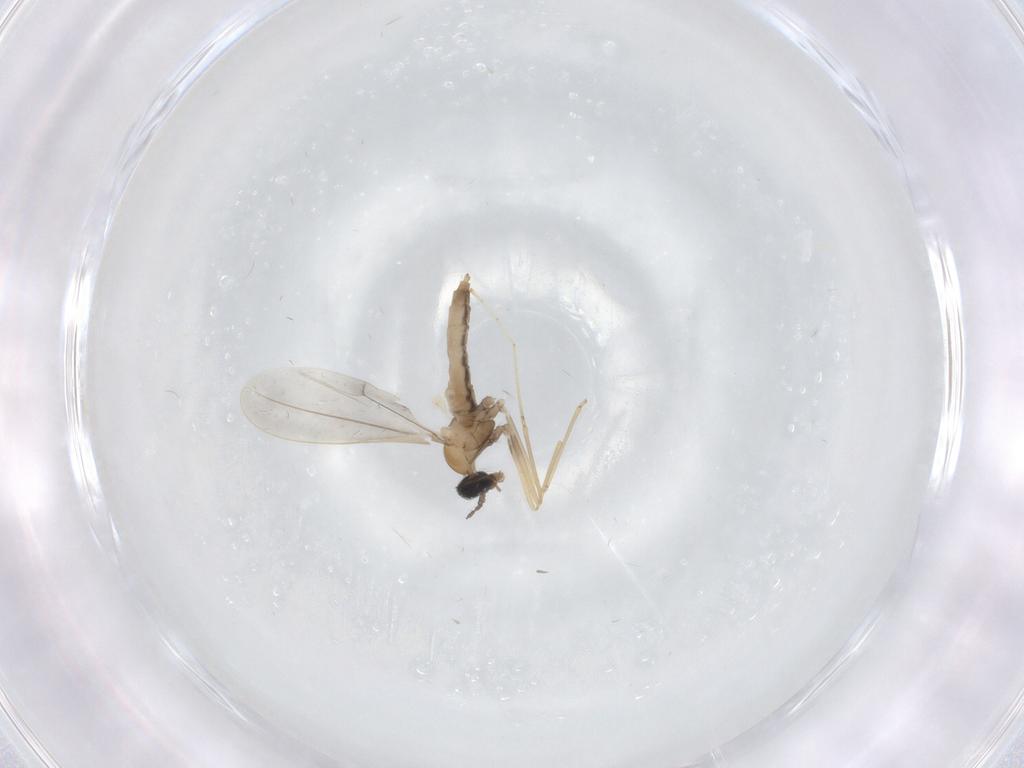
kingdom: Animalia
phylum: Arthropoda
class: Insecta
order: Diptera
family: Cecidomyiidae
